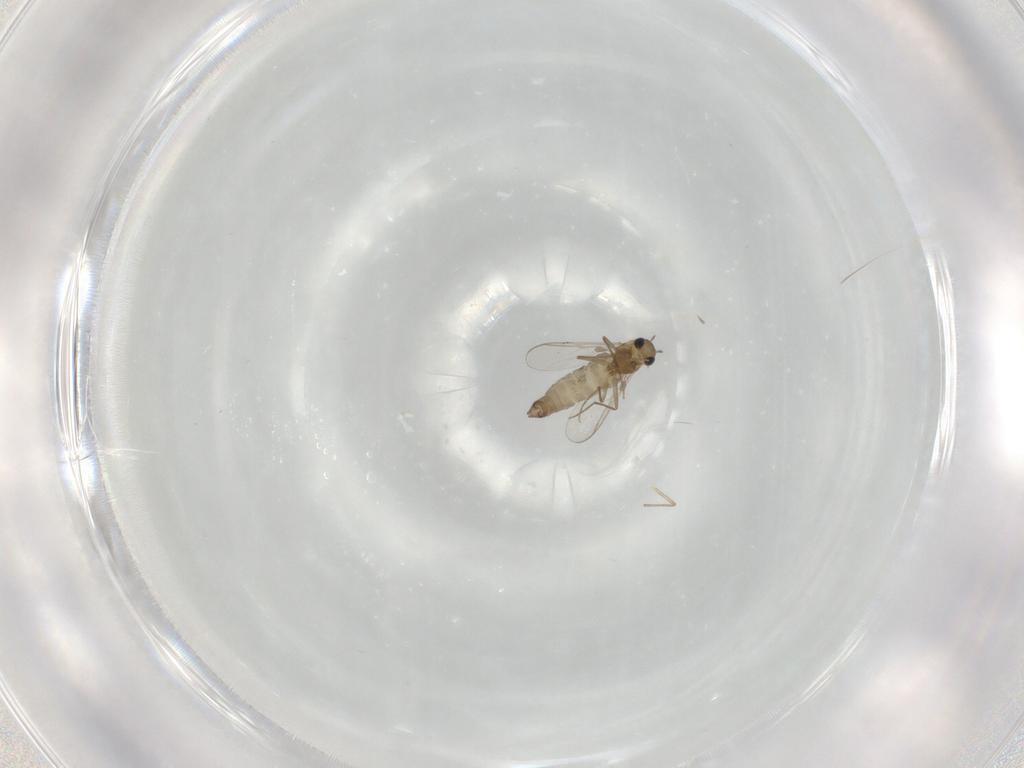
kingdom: Animalia
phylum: Arthropoda
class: Insecta
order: Diptera
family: Chironomidae
